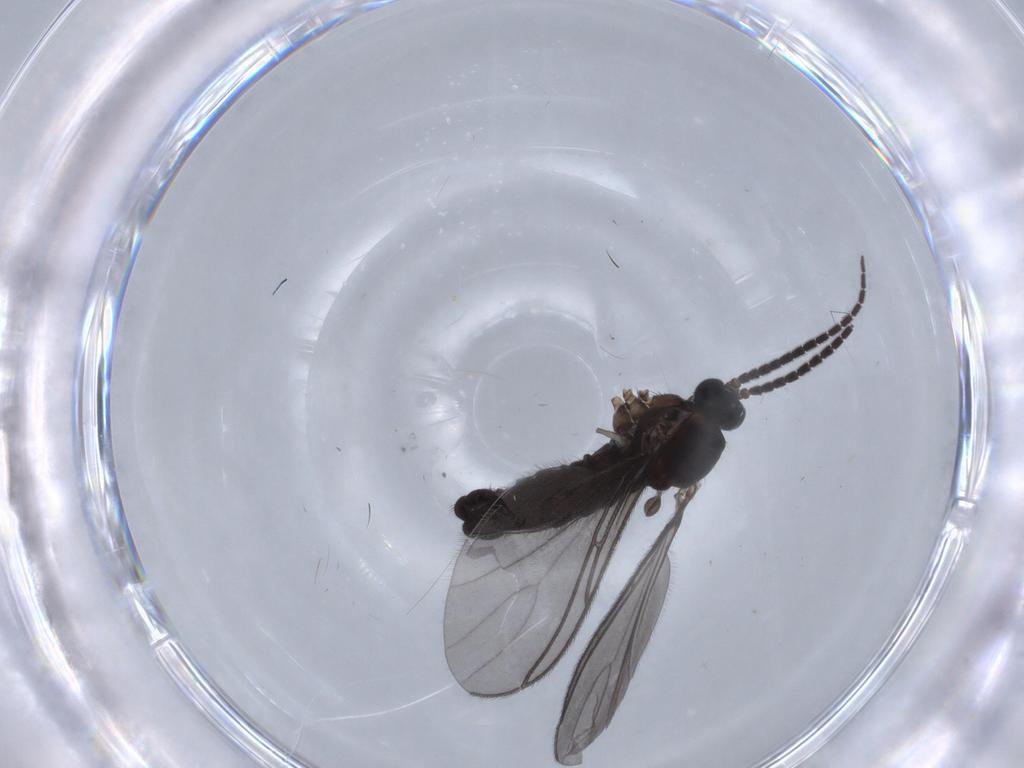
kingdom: Animalia
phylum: Arthropoda
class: Insecta
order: Diptera
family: Sciaridae
